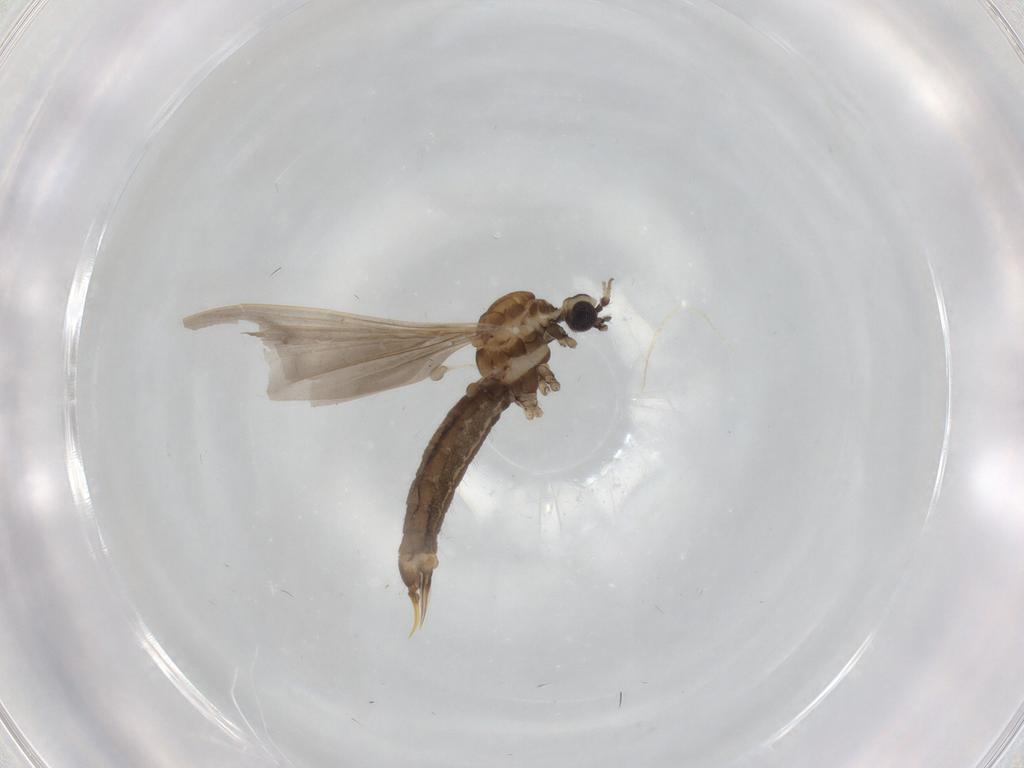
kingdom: Animalia
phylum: Arthropoda
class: Insecta
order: Diptera
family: Limoniidae
